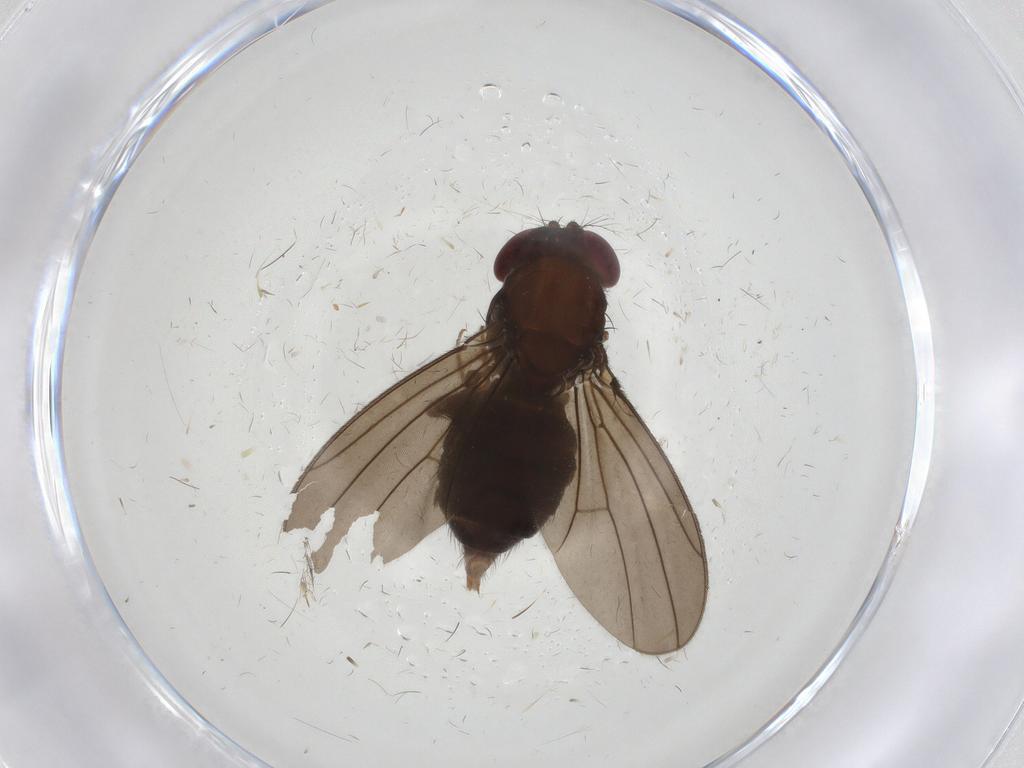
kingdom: Animalia
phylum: Arthropoda
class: Insecta
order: Diptera
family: Drosophilidae
